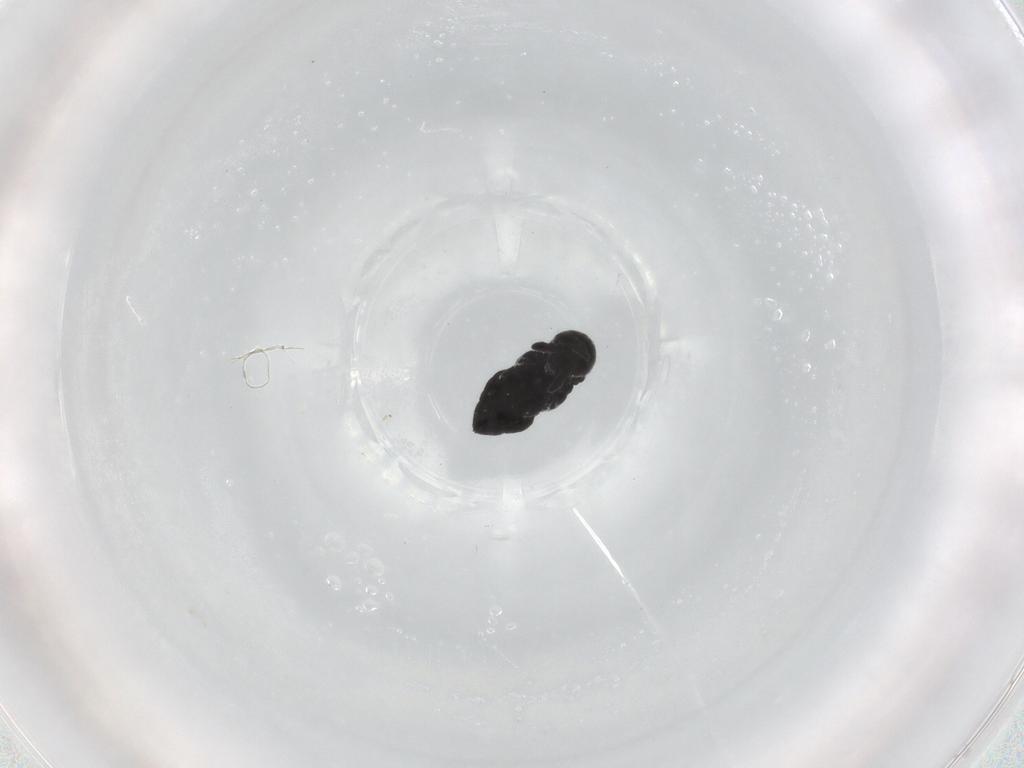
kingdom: Animalia
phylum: Arthropoda
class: Collembola
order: Poduromorpha
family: Hypogastruridae
